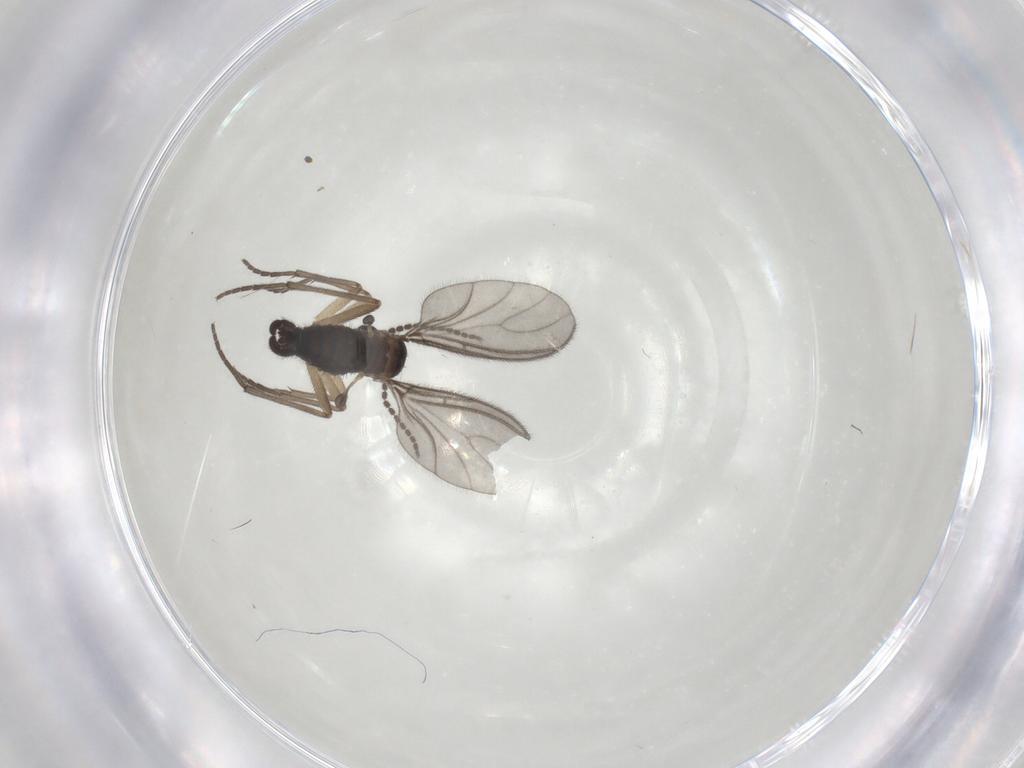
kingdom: Animalia
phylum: Arthropoda
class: Insecta
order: Diptera
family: Sciaridae
